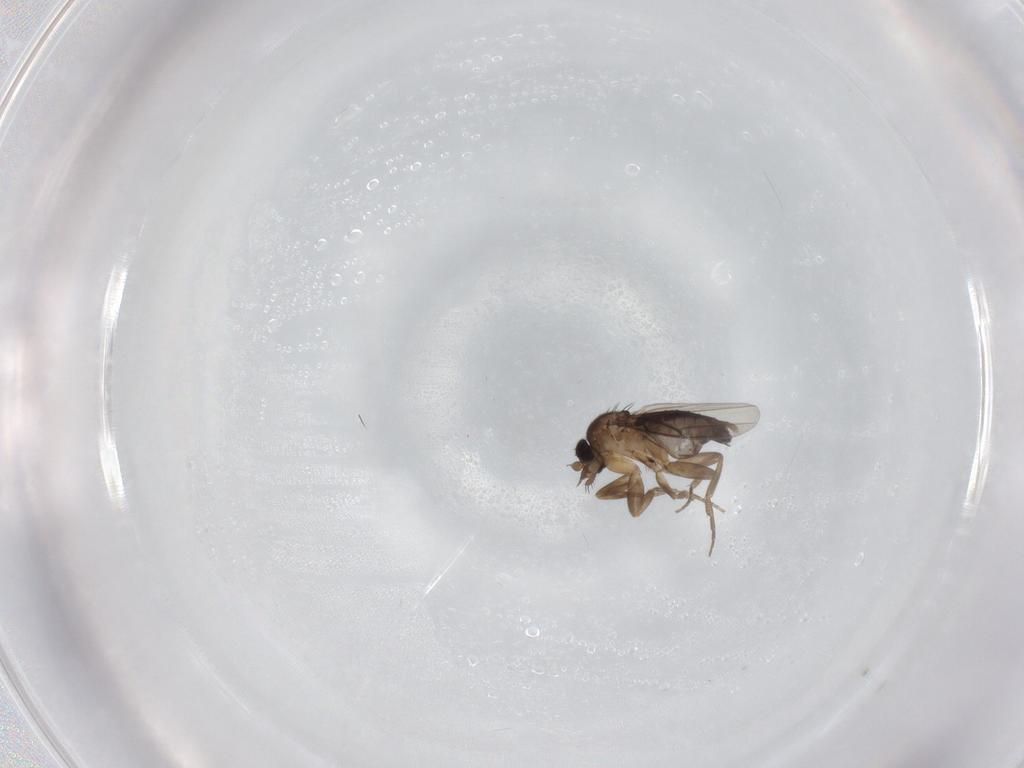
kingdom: Animalia
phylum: Arthropoda
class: Insecta
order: Diptera
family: Phoridae
